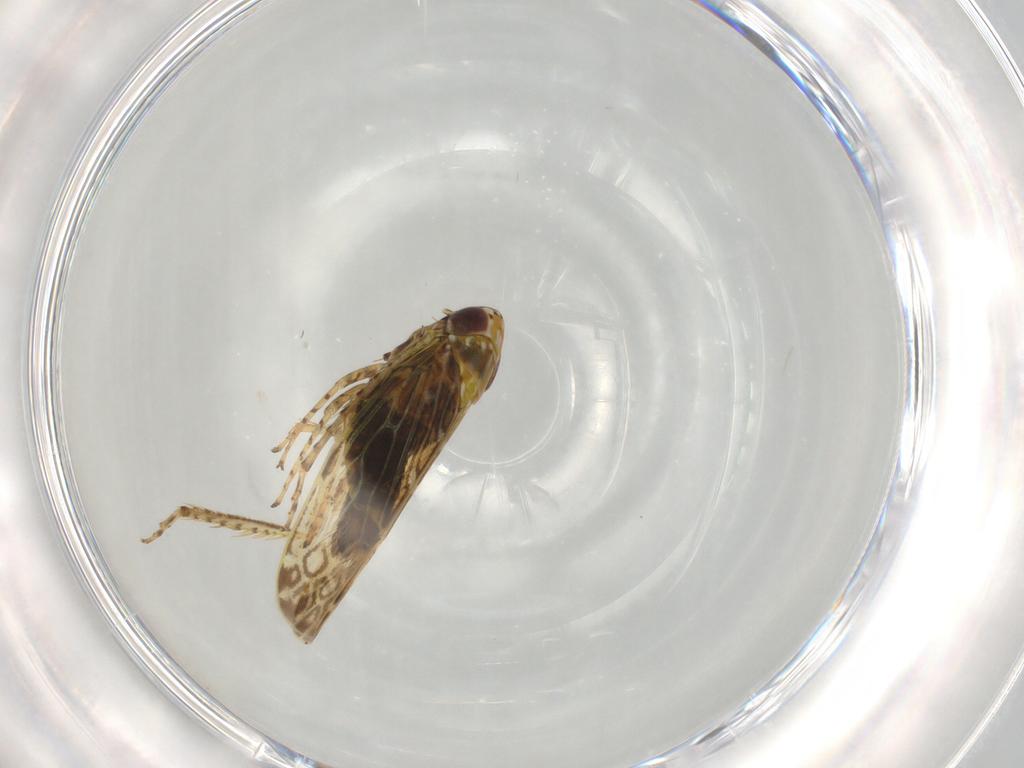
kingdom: Animalia
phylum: Arthropoda
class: Insecta
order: Hemiptera
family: Cicadellidae
